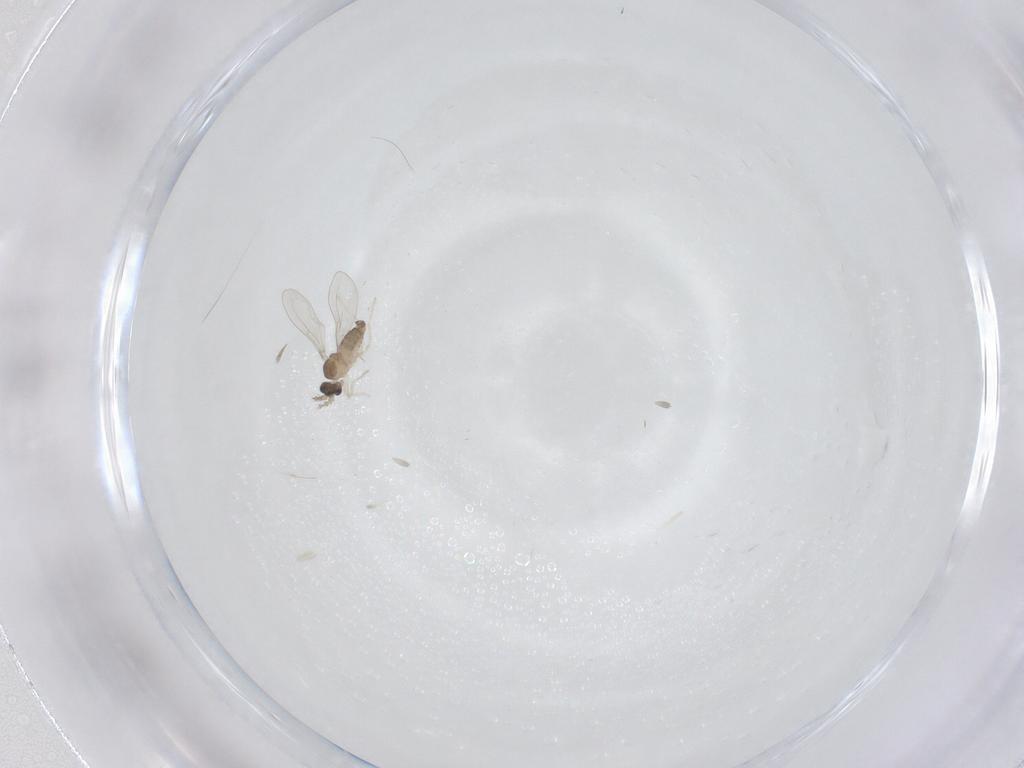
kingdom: Animalia
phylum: Arthropoda
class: Insecta
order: Diptera
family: Cecidomyiidae
